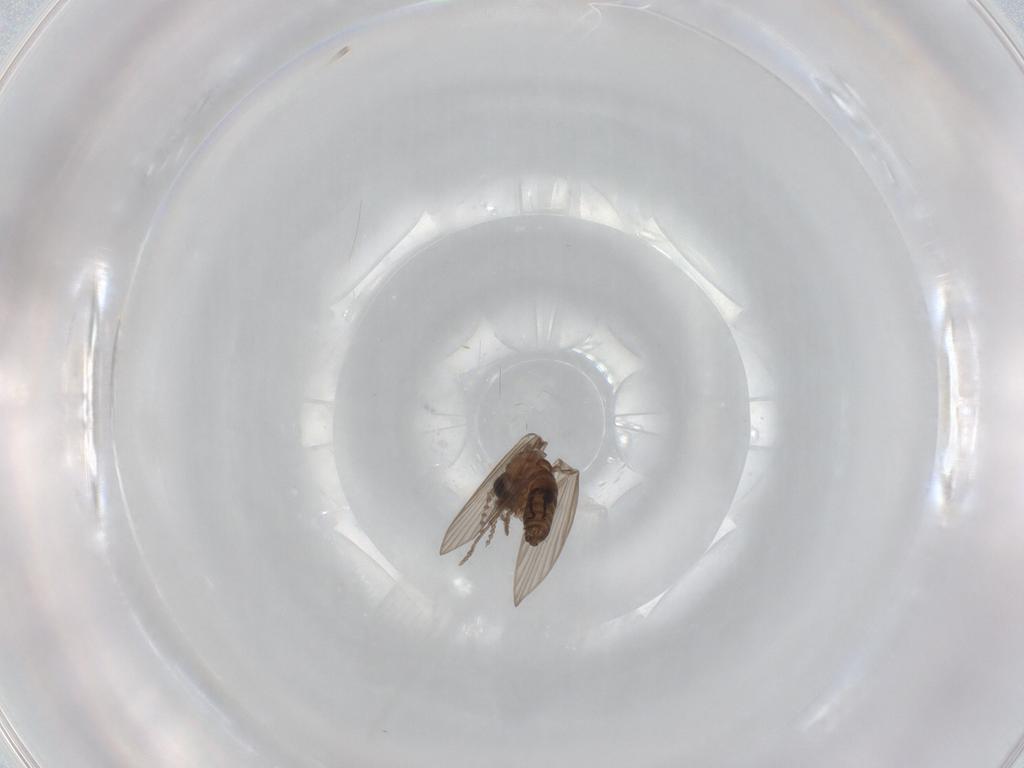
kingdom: Animalia
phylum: Arthropoda
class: Insecta
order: Diptera
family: Psychodidae
